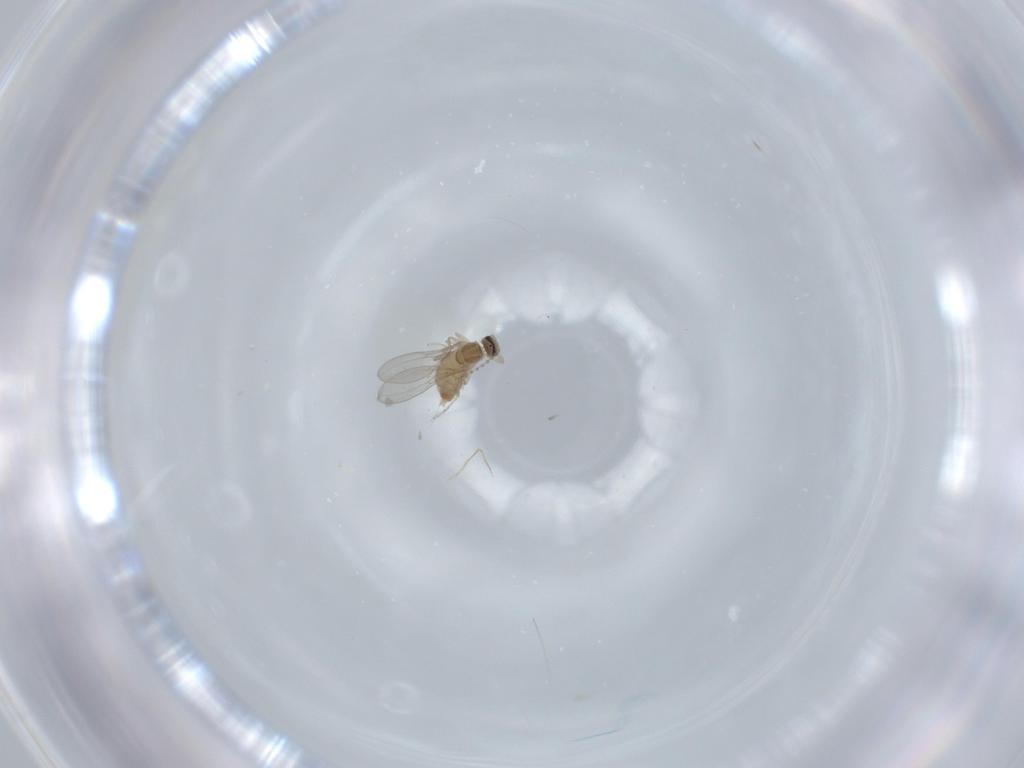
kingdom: Animalia
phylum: Arthropoda
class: Insecta
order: Diptera
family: Cecidomyiidae
